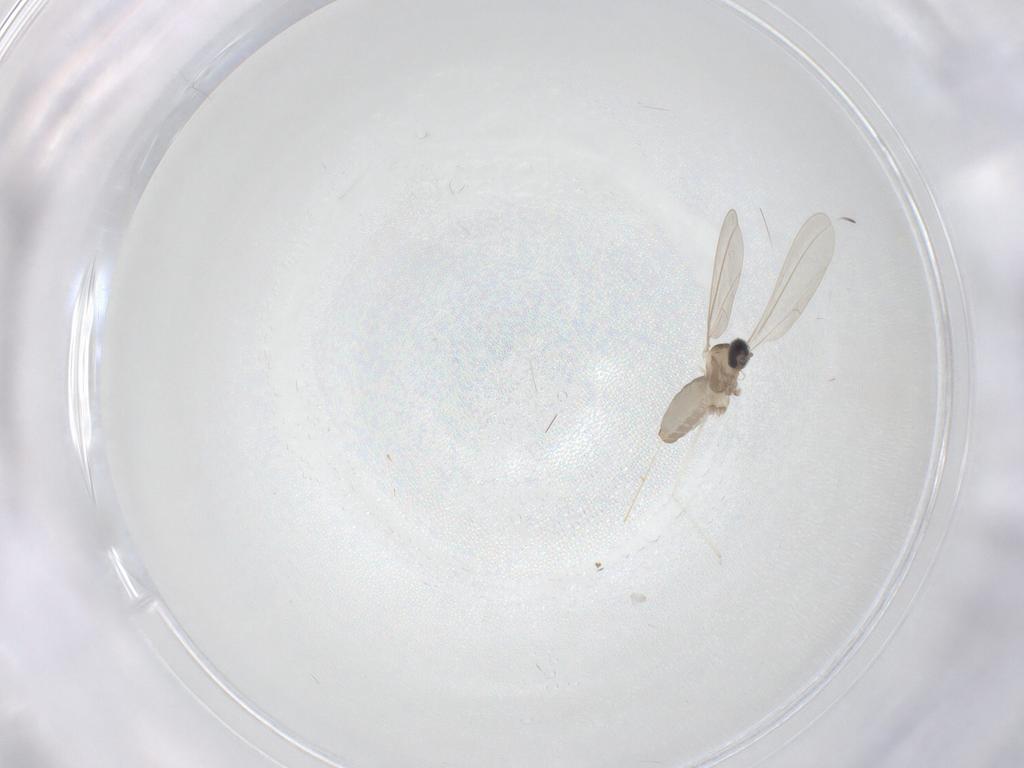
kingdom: Animalia
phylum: Arthropoda
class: Insecta
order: Diptera
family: Cecidomyiidae
